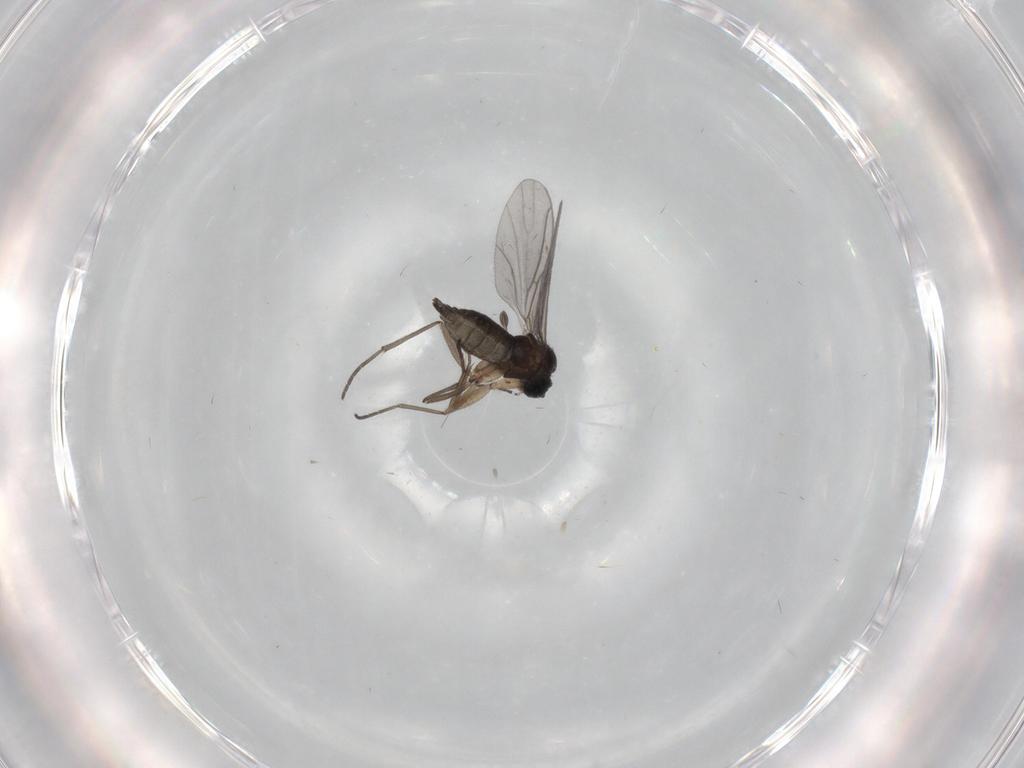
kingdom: Animalia
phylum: Arthropoda
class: Insecta
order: Diptera
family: Sciaridae
